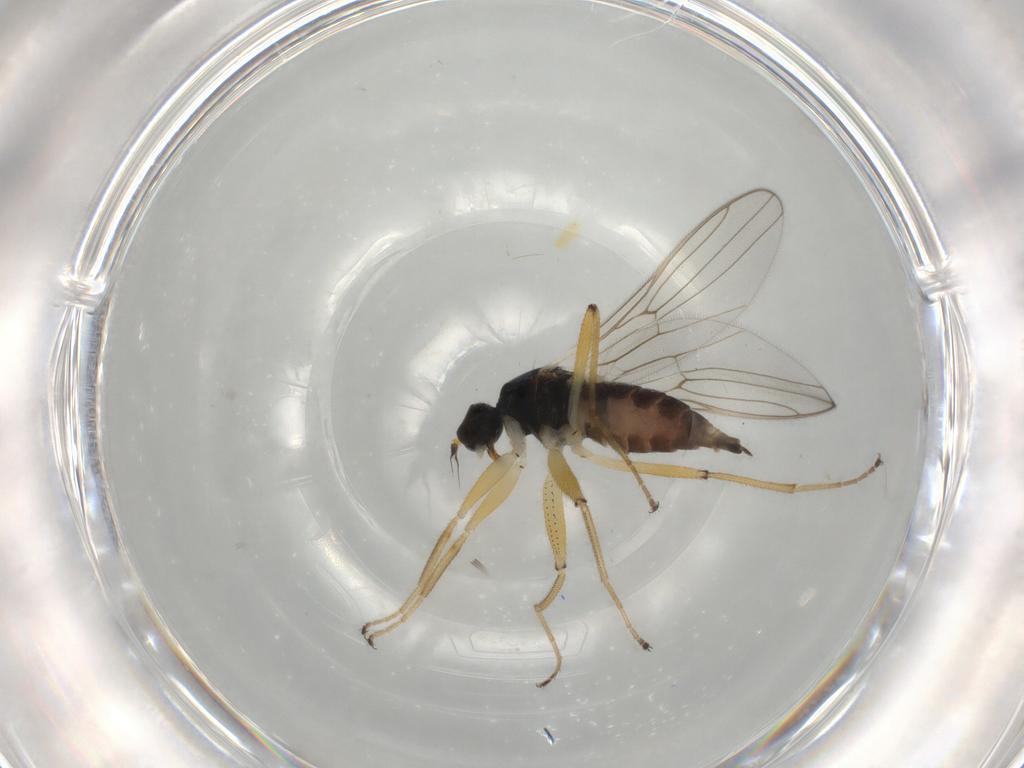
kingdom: Animalia
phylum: Arthropoda
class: Insecta
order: Diptera
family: Hybotidae
